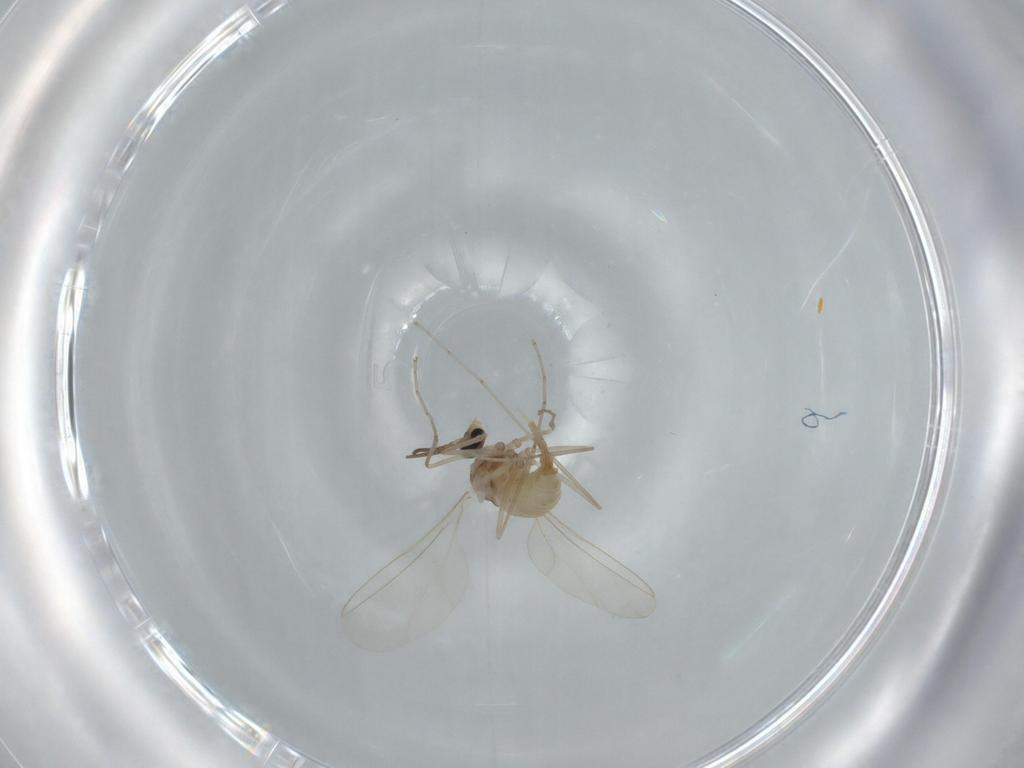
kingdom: Animalia
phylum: Arthropoda
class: Insecta
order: Diptera
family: Cecidomyiidae
